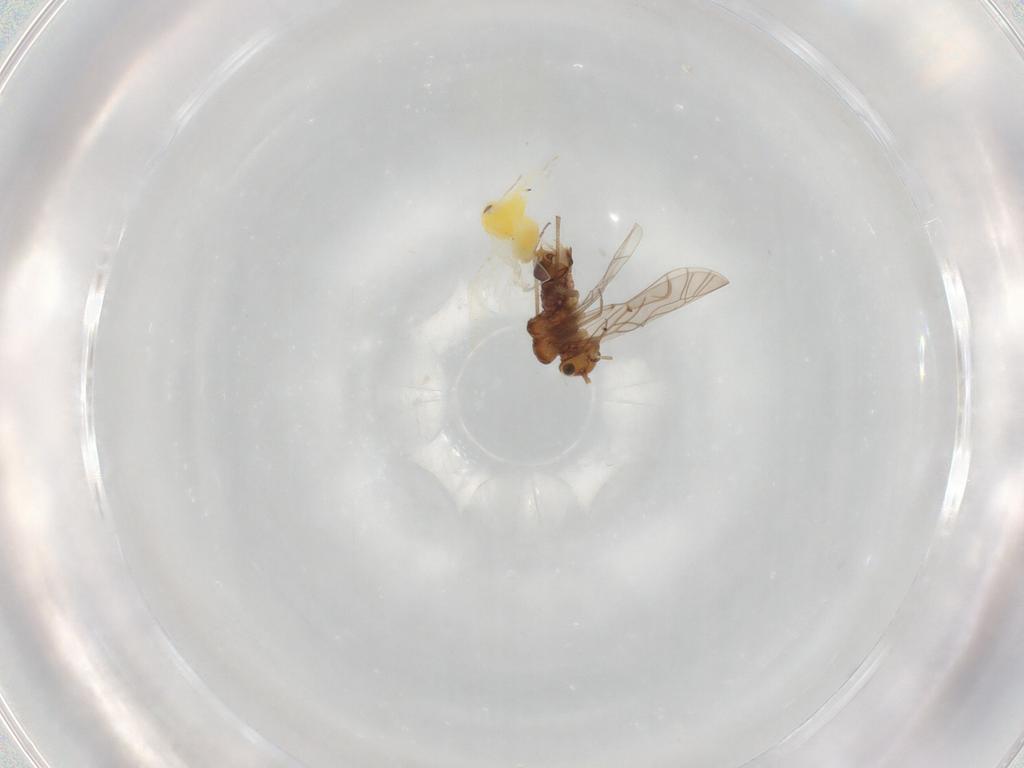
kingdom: Animalia
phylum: Arthropoda
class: Insecta
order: Psocodea
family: Lachesillidae
